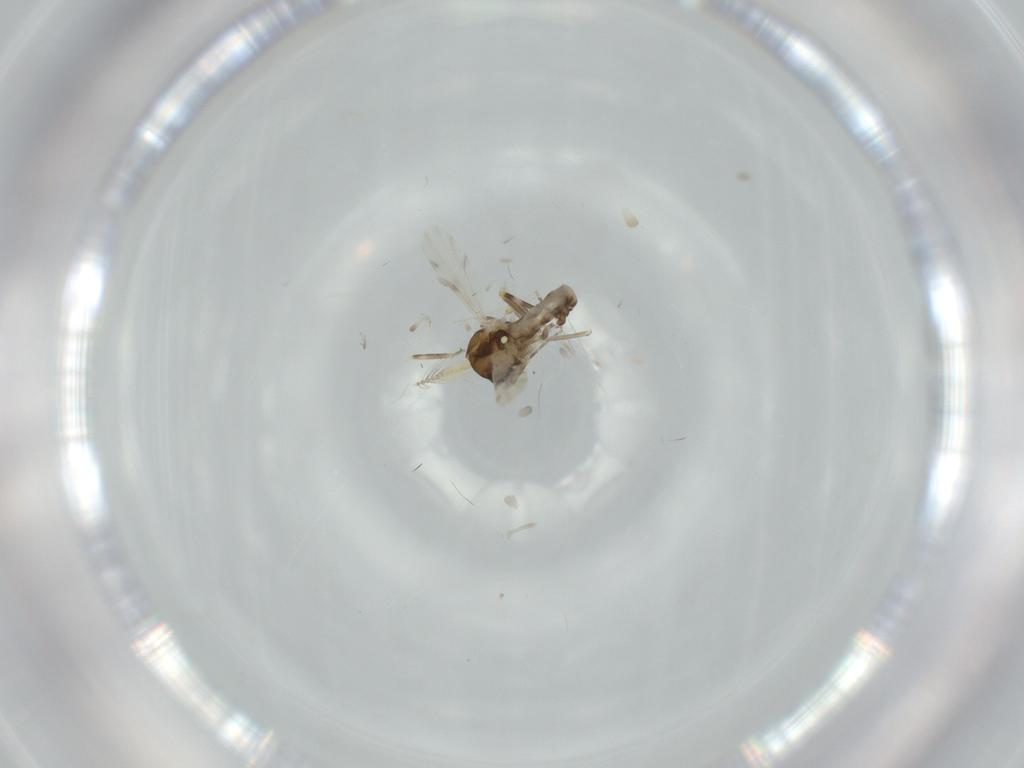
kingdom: Animalia
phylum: Arthropoda
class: Insecta
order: Diptera
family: Ceratopogonidae
